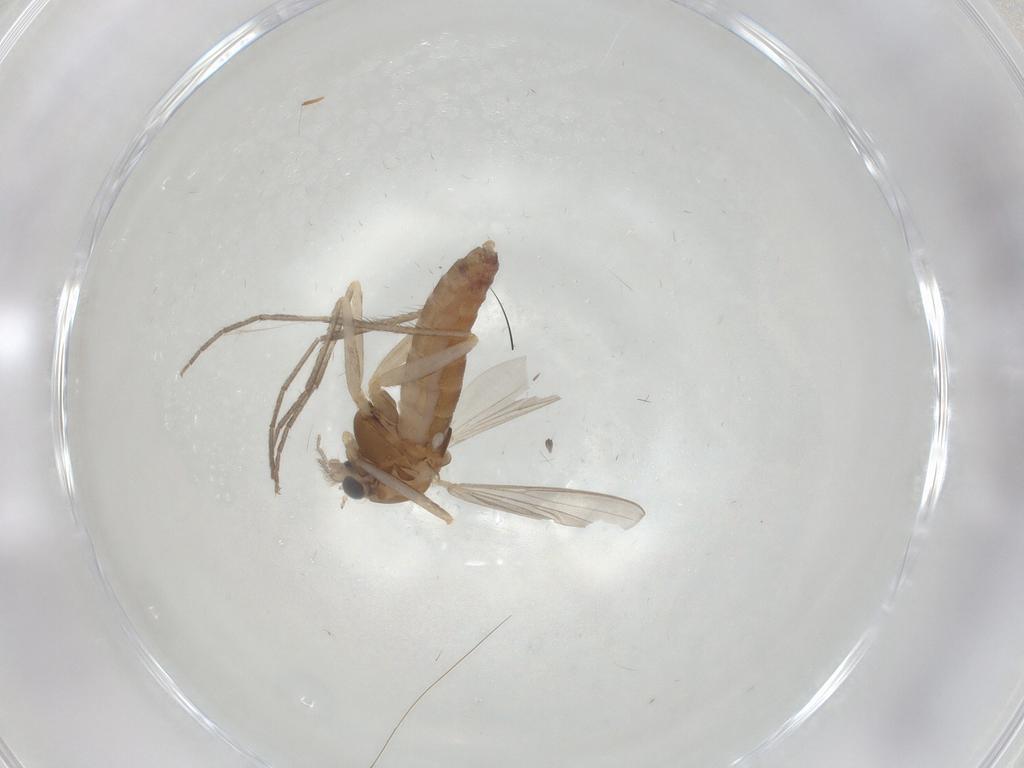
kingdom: Animalia
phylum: Arthropoda
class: Insecta
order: Diptera
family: Chironomidae
